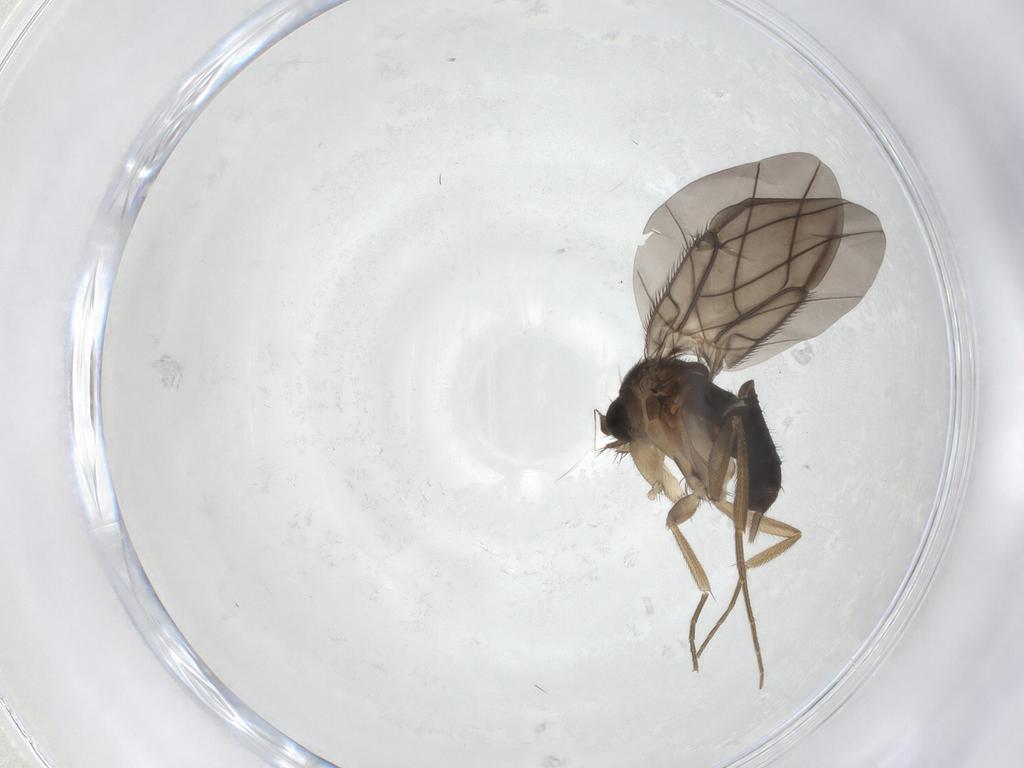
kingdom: Animalia
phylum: Arthropoda
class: Insecta
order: Diptera
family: Phoridae
